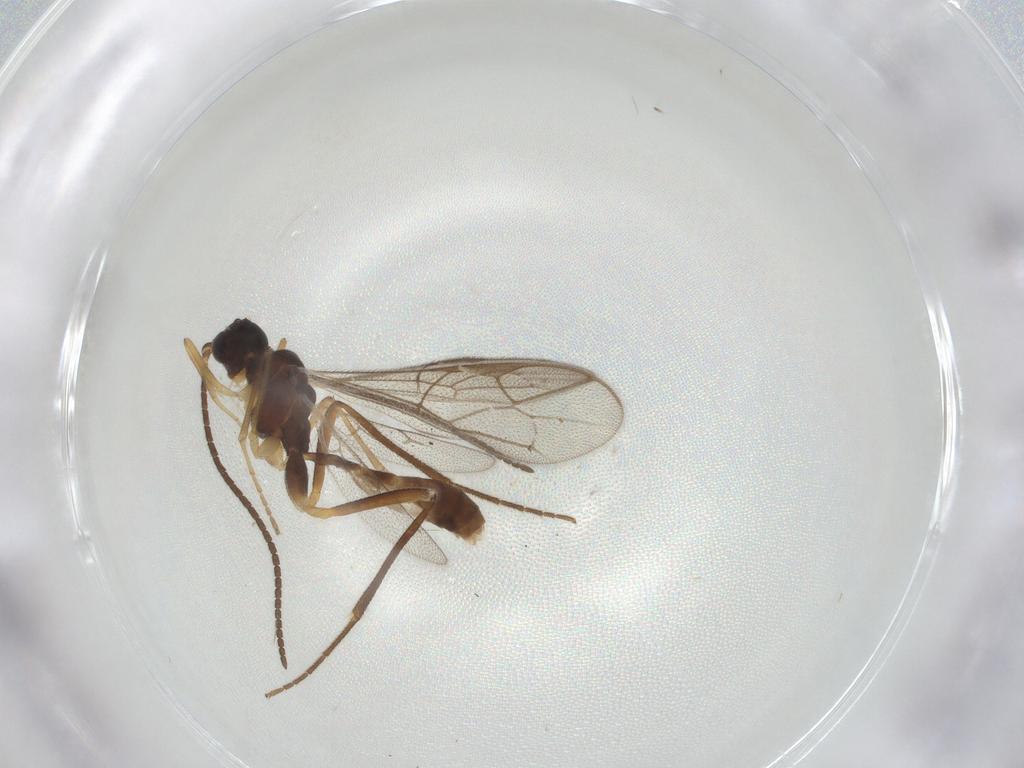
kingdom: Animalia
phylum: Arthropoda
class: Insecta
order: Hymenoptera
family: Ichneumonidae
